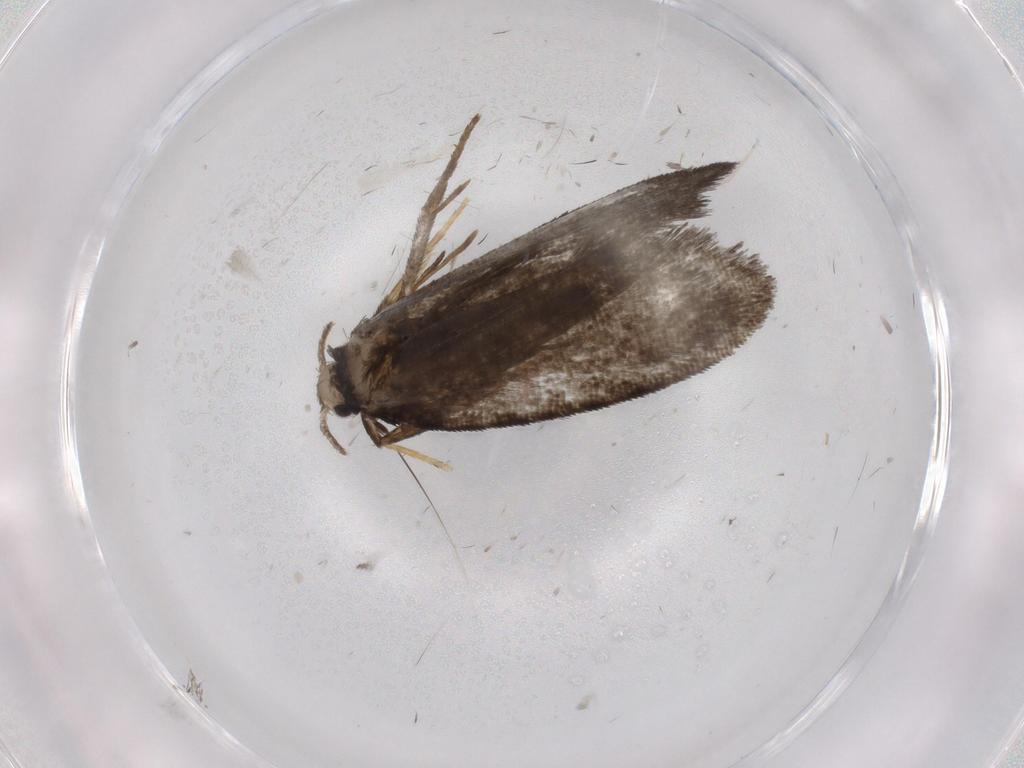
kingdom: Animalia
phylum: Arthropoda
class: Insecta
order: Lepidoptera
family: Psychidae
